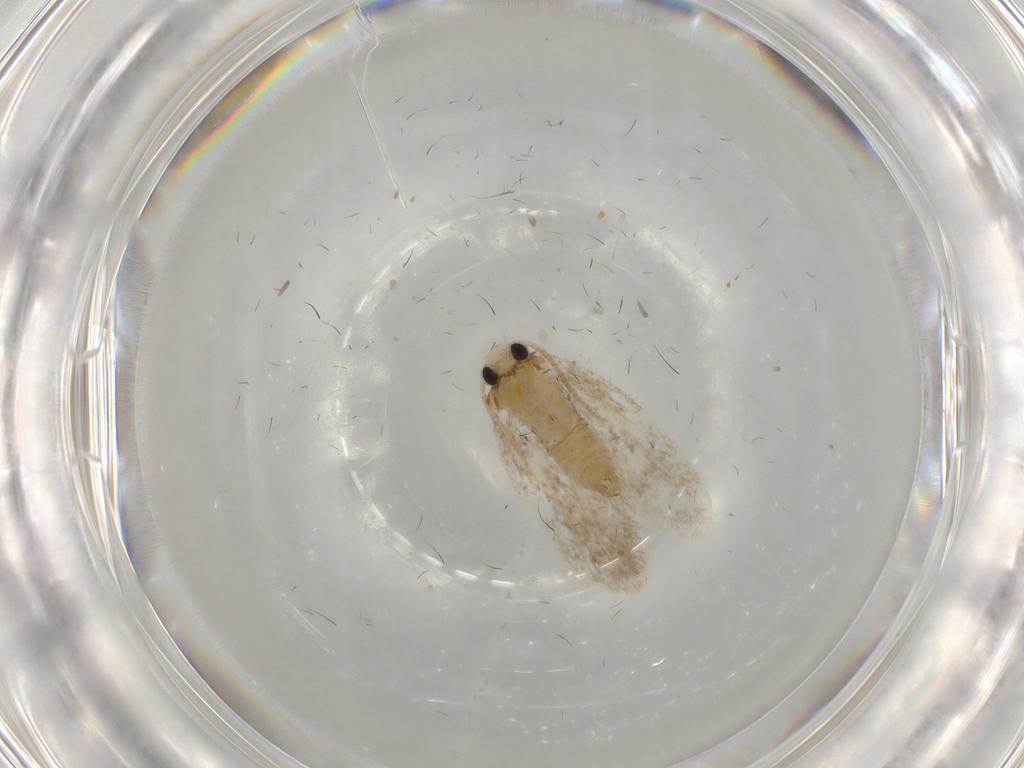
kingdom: Animalia
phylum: Arthropoda
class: Insecta
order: Lepidoptera
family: Psychidae
